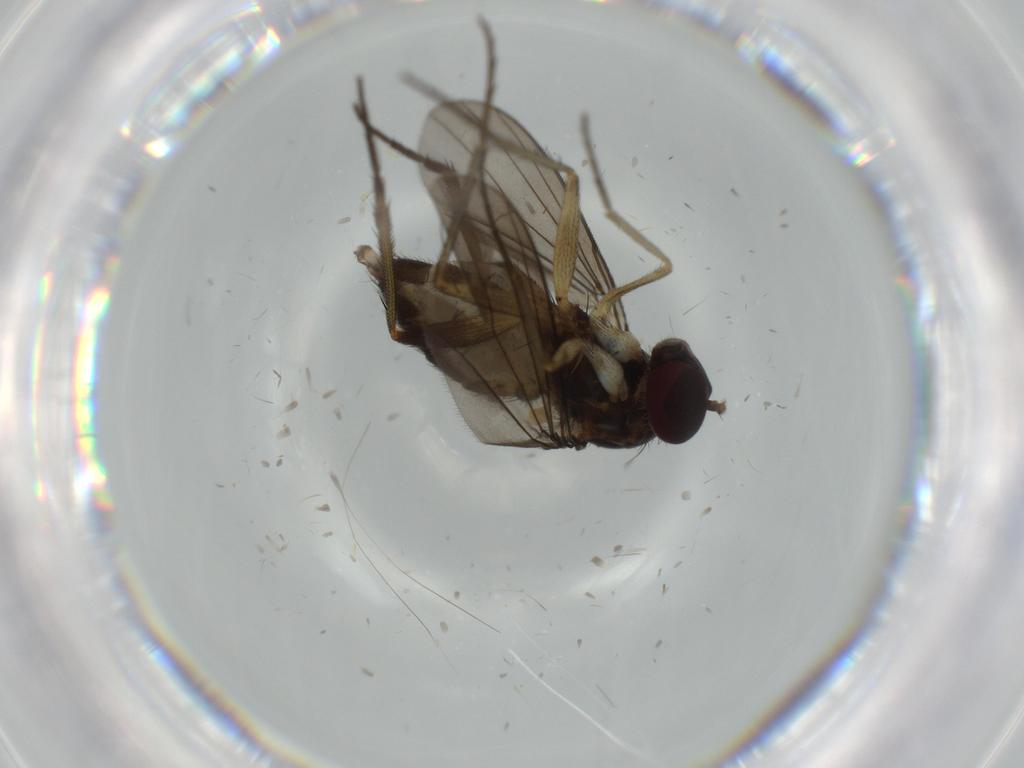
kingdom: Animalia
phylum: Arthropoda
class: Insecta
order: Diptera
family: Dolichopodidae
